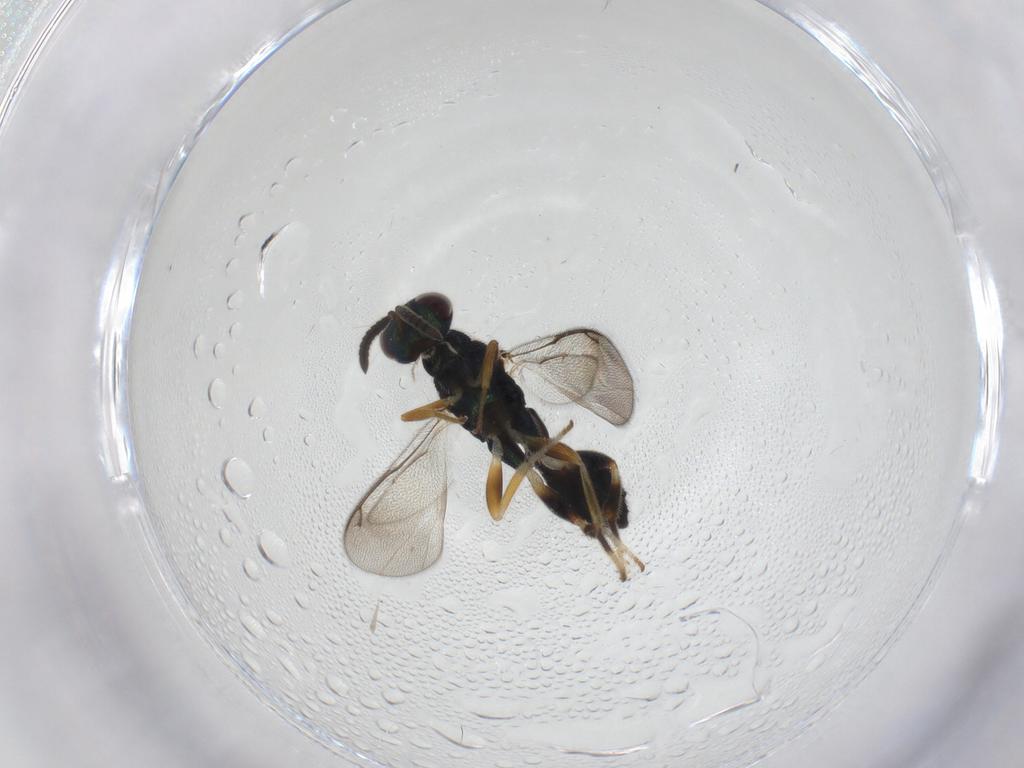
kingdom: Animalia
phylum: Arthropoda
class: Insecta
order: Hymenoptera
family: Cleonyminae
